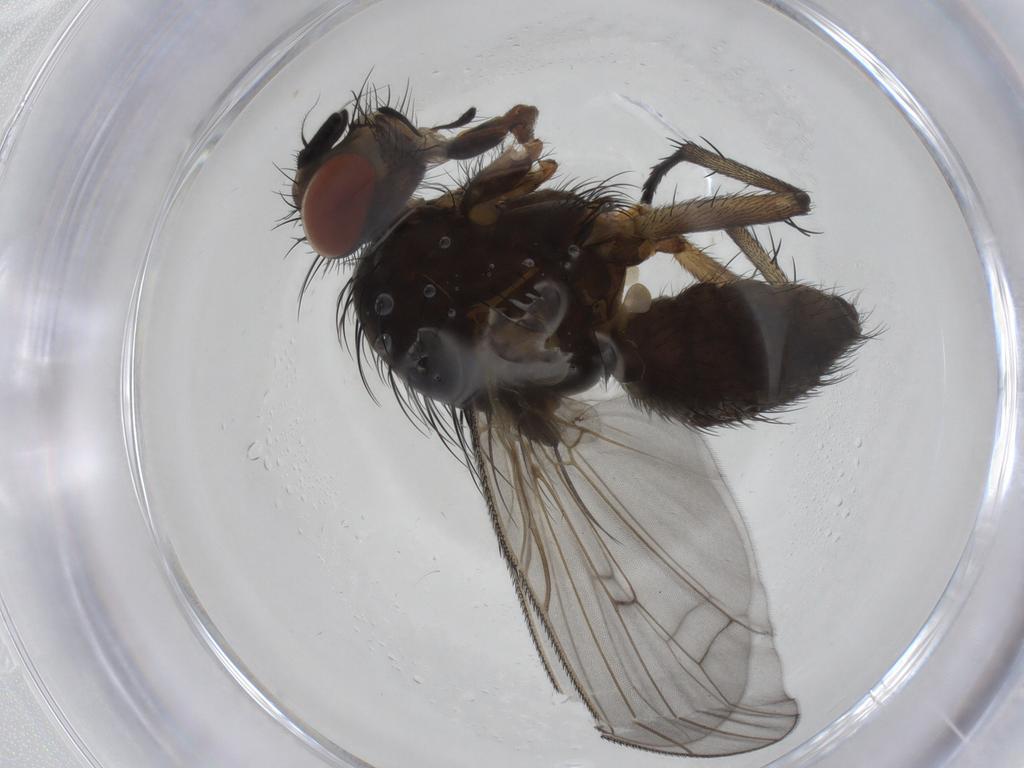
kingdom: Animalia
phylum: Arthropoda
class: Insecta
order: Diptera
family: Anthomyiidae
